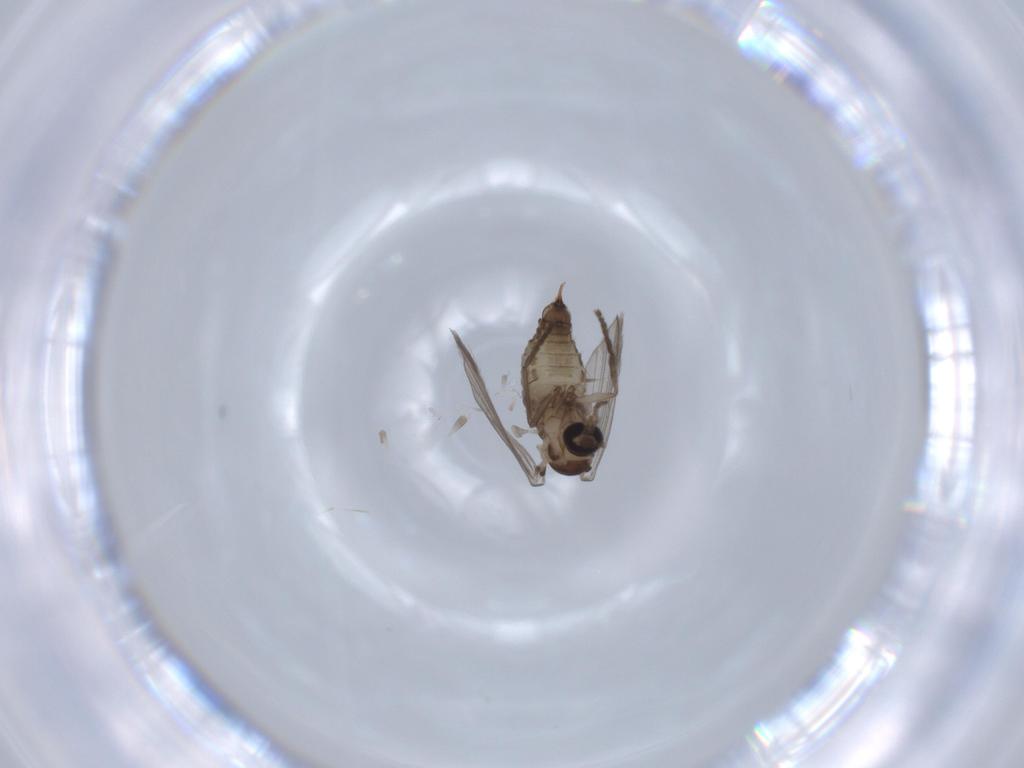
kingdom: Animalia
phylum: Arthropoda
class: Insecta
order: Diptera
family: Psychodidae
